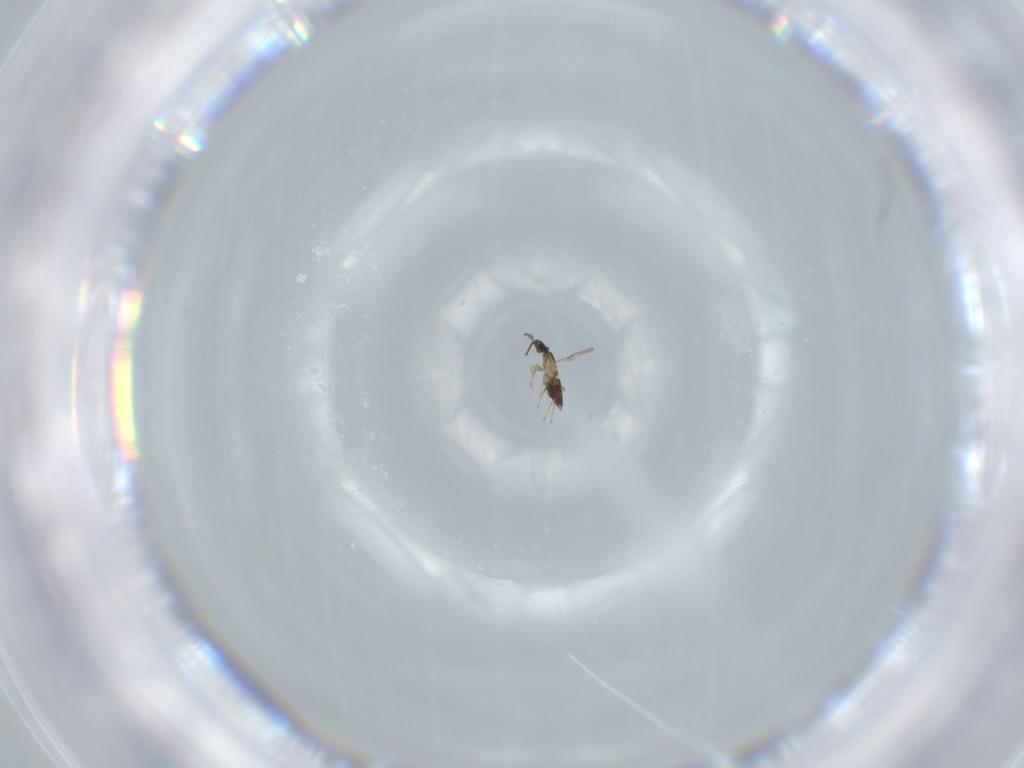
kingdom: Animalia
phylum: Arthropoda
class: Insecta
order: Hymenoptera
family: Mymaridae
